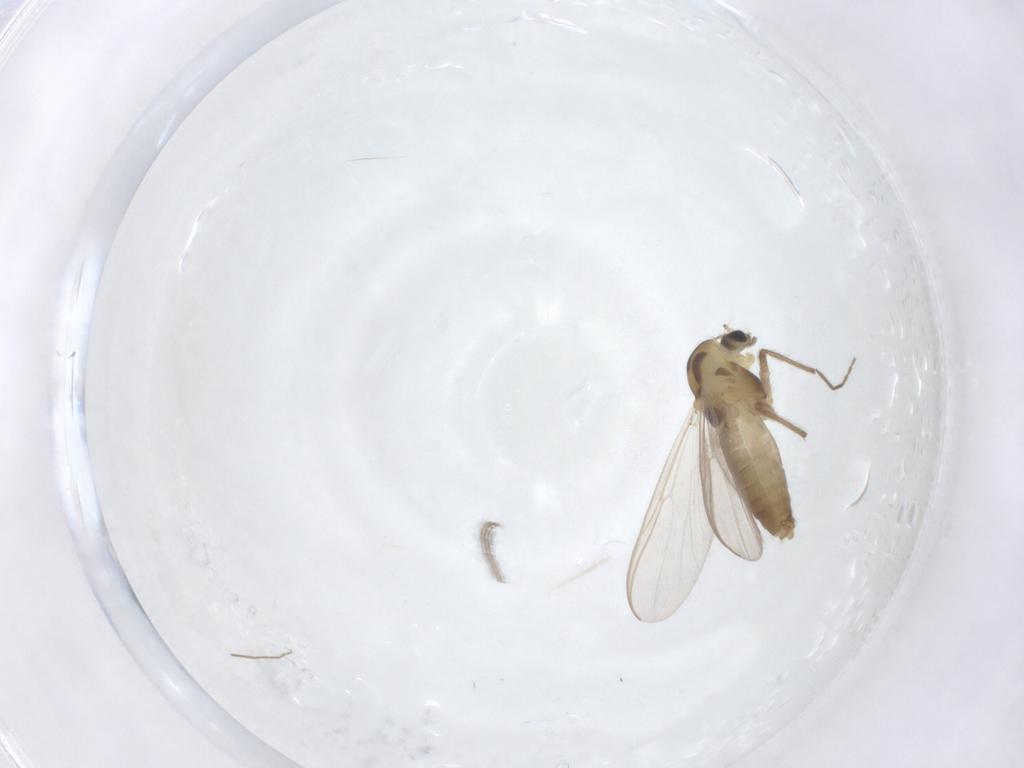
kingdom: Animalia
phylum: Arthropoda
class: Insecta
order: Diptera
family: Chironomidae
